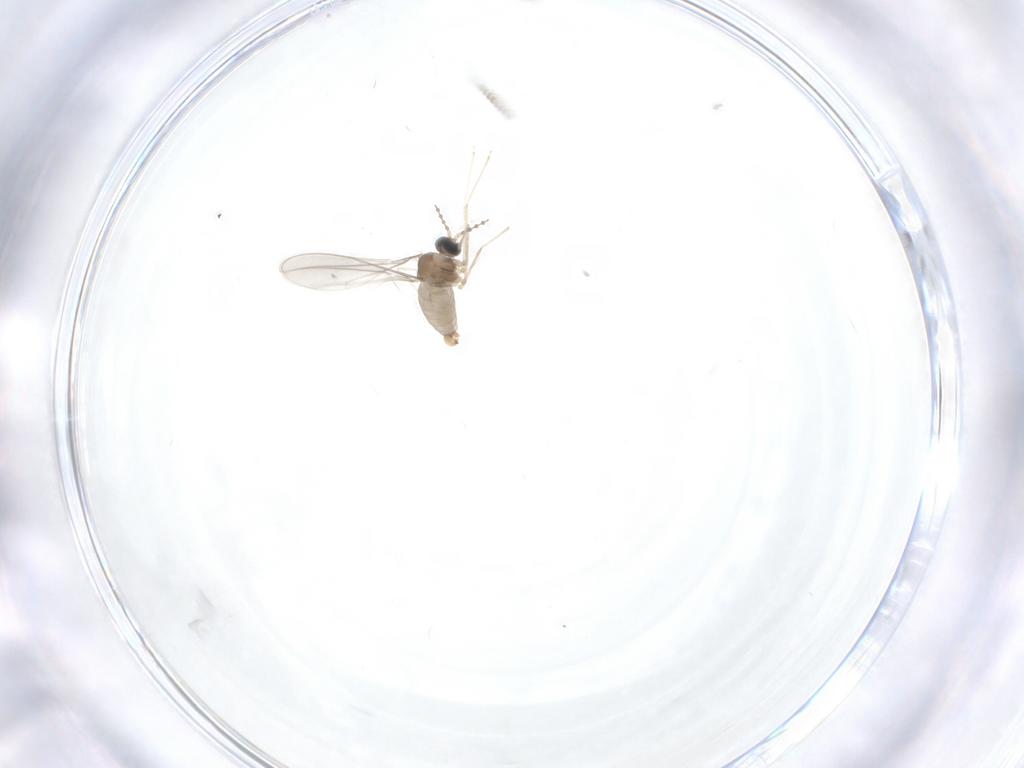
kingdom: Animalia
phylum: Arthropoda
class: Insecta
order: Diptera
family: Cecidomyiidae
